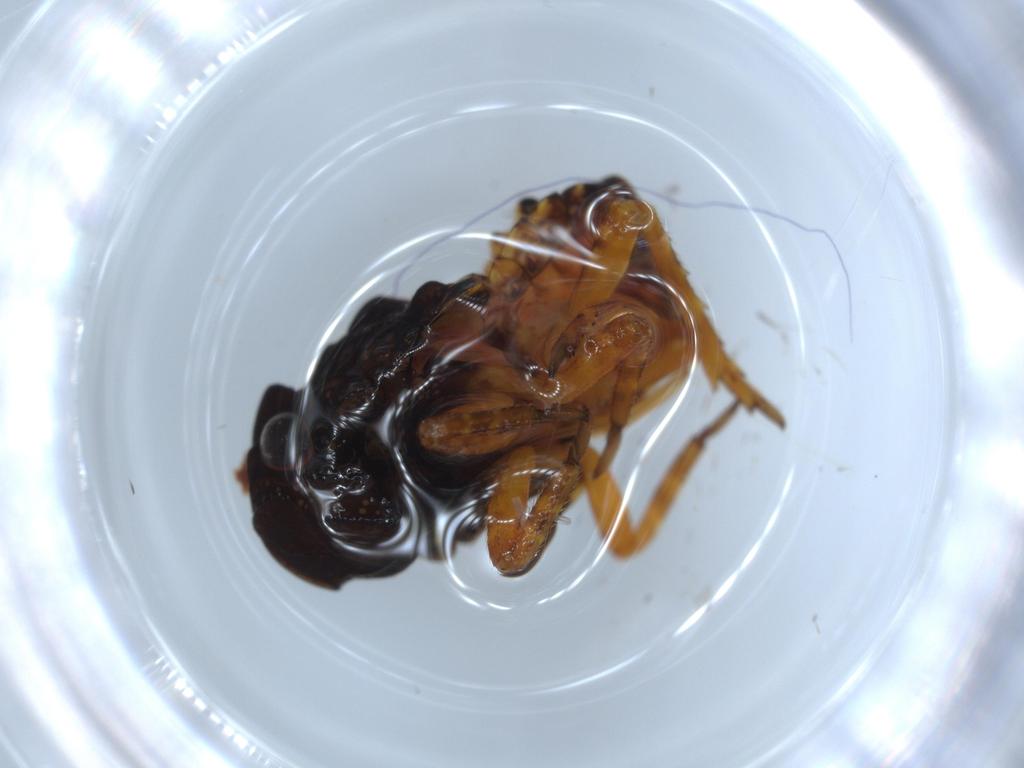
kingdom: Animalia
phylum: Arthropoda
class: Insecta
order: Hemiptera
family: Fulgoridae
